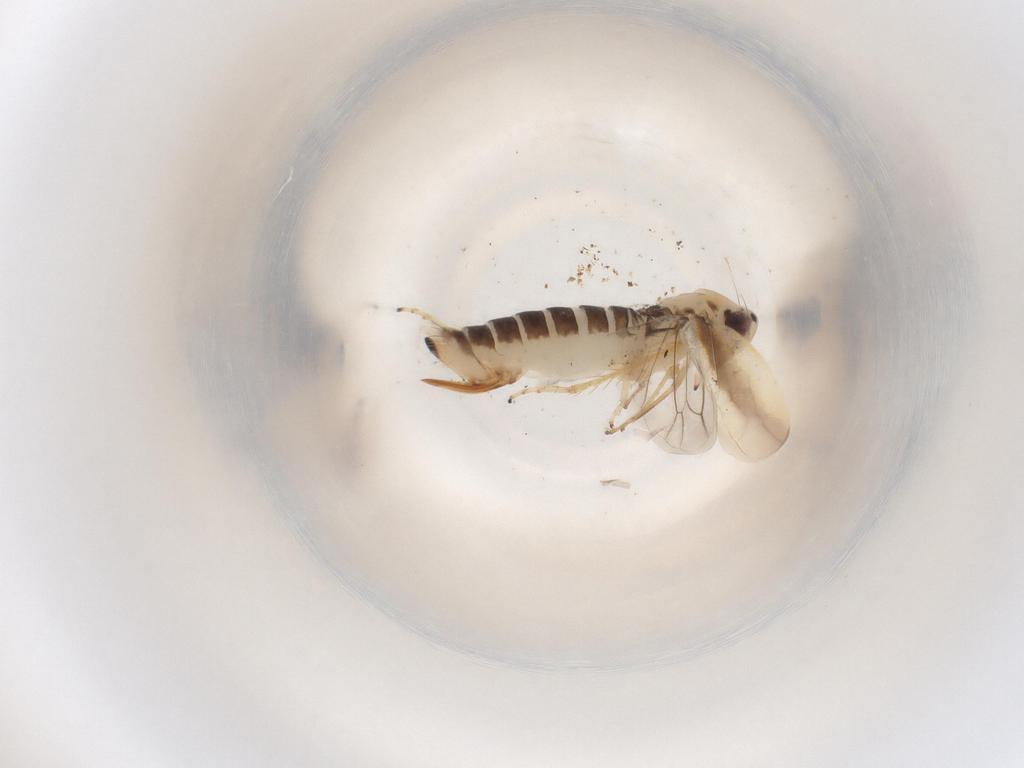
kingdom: Animalia
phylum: Arthropoda
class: Insecta
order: Hemiptera
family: Cicadellidae
